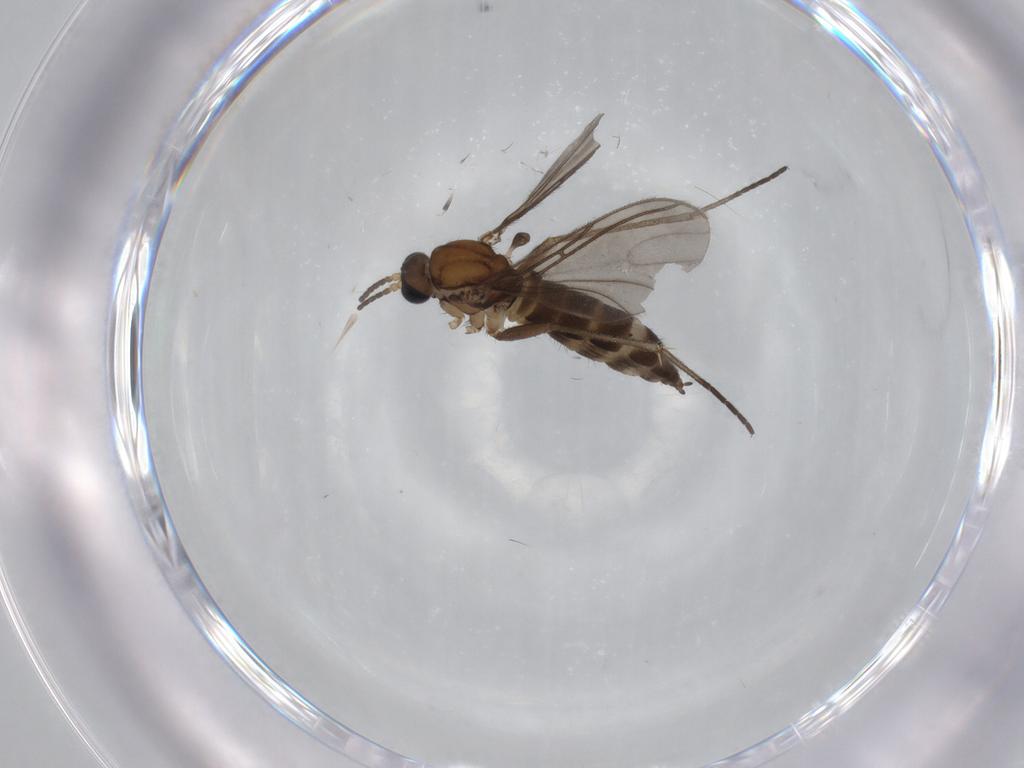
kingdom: Animalia
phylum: Arthropoda
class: Insecta
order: Diptera
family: Sciaridae
